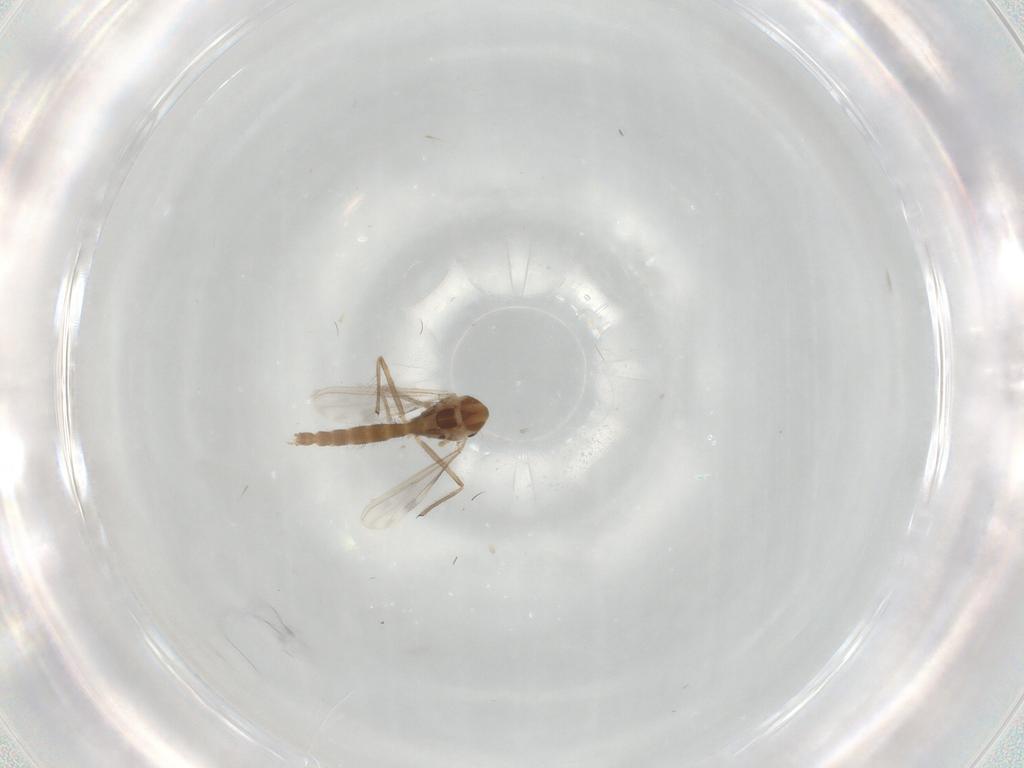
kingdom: Animalia
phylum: Arthropoda
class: Insecta
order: Diptera
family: Chironomidae
